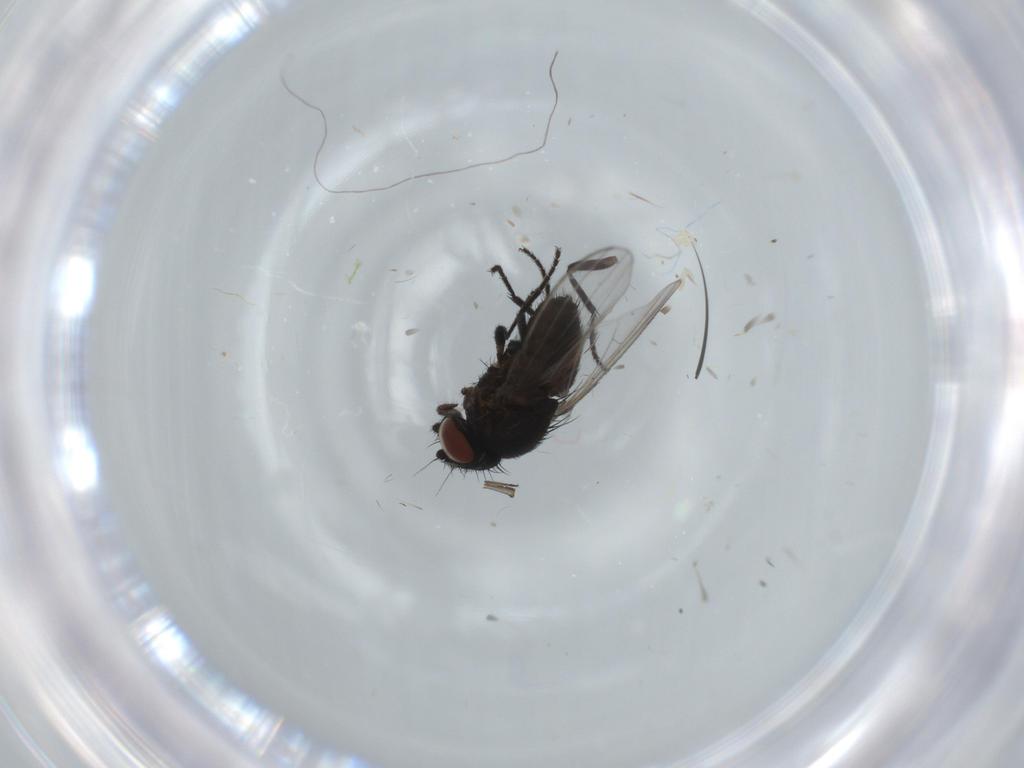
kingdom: Animalia
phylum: Arthropoda
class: Insecta
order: Diptera
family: Milichiidae
